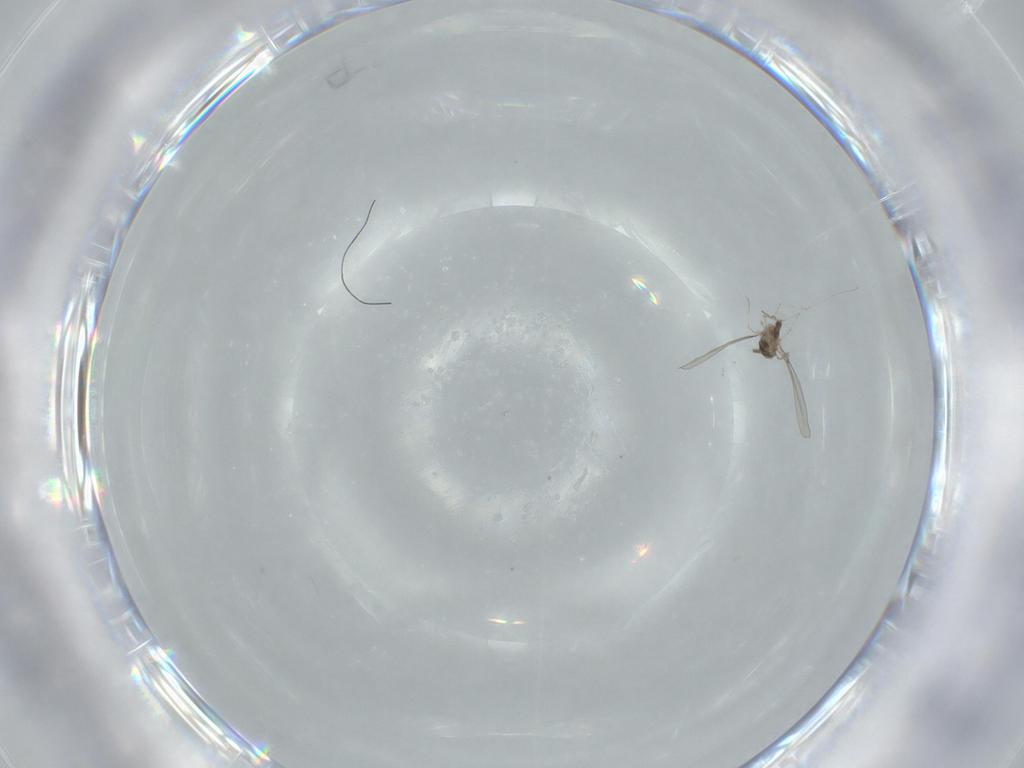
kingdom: Animalia
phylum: Arthropoda
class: Insecta
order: Diptera
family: Cecidomyiidae
